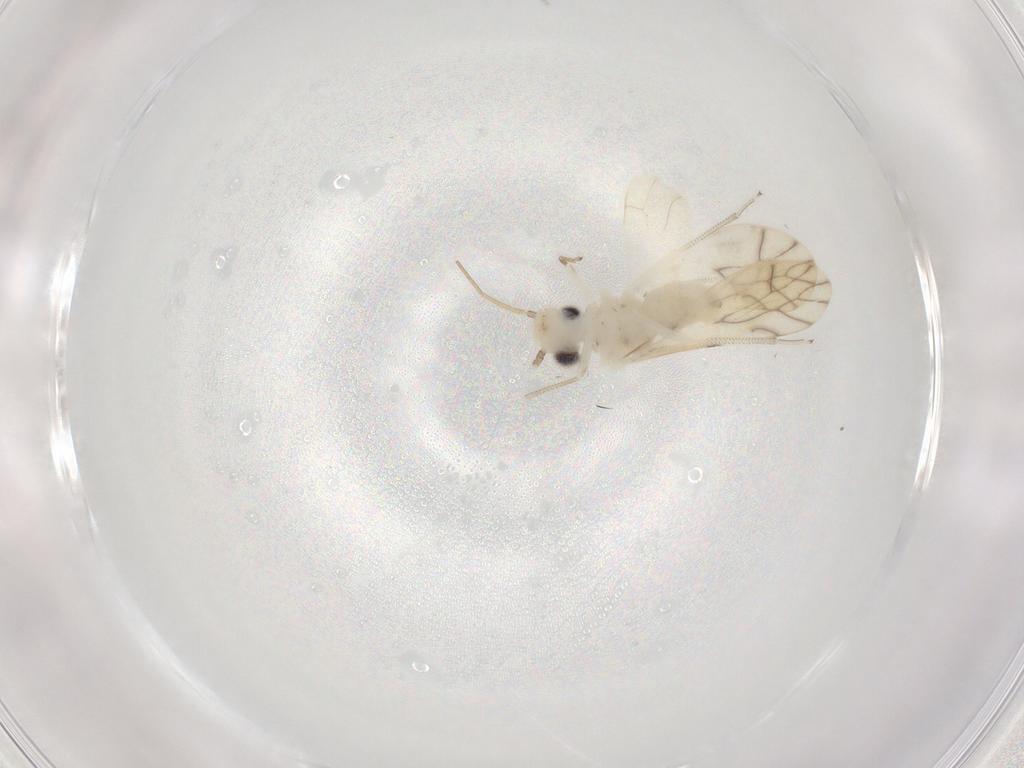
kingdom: Animalia
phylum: Arthropoda
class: Insecta
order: Psocodea
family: Caeciliusidae
